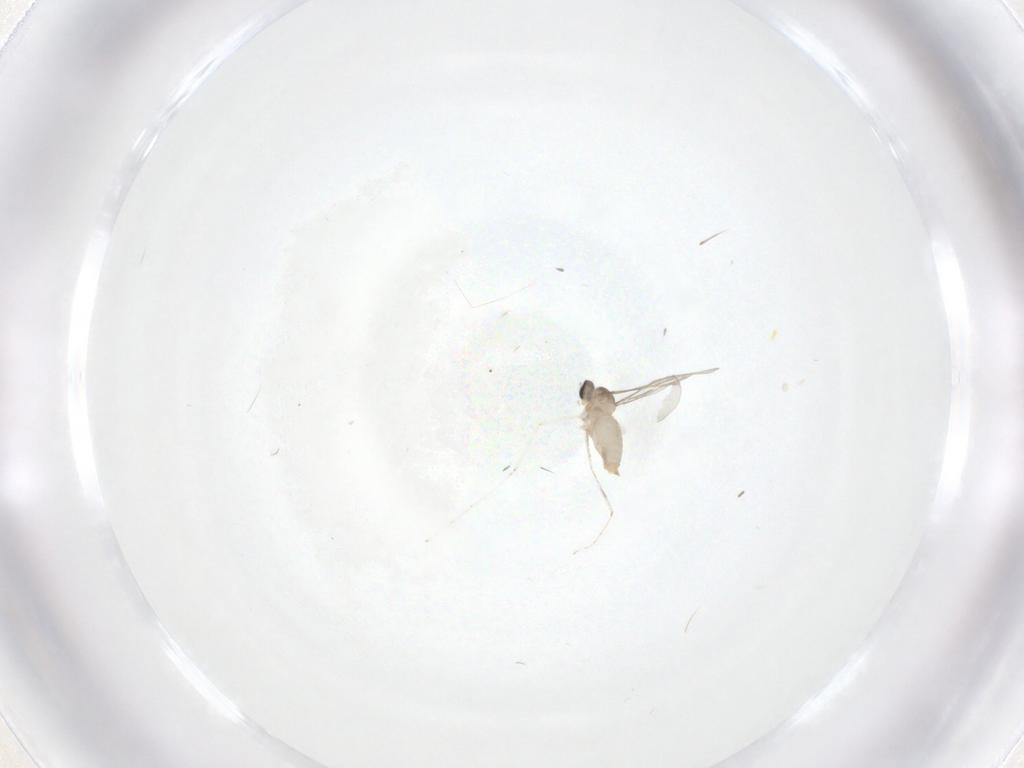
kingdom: Animalia
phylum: Arthropoda
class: Insecta
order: Diptera
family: Cecidomyiidae
